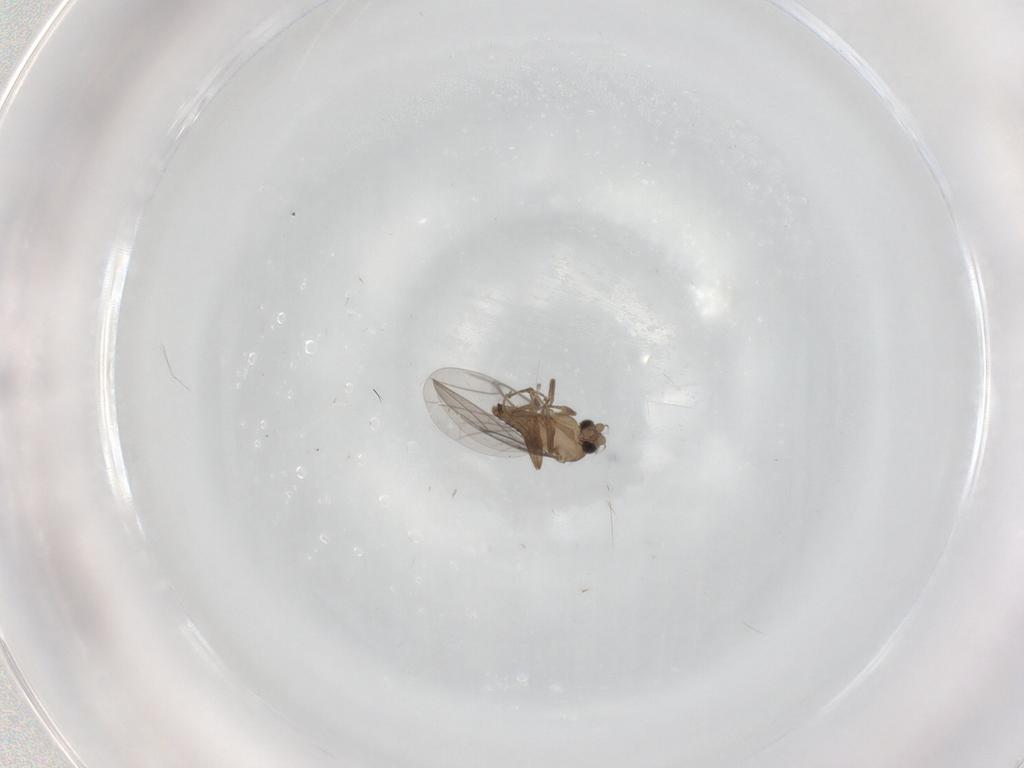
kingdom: Animalia
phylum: Arthropoda
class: Insecta
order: Diptera
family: Sciaridae
